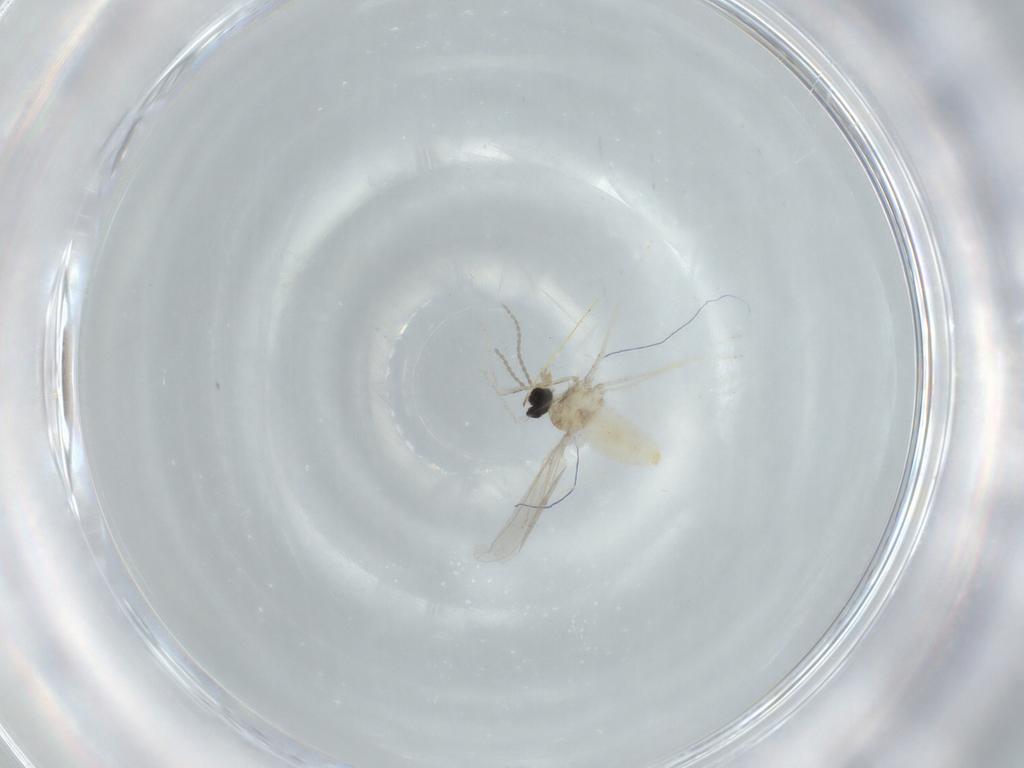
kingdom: Animalia
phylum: Arthropoda
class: Insecta
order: Diptera
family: Cecidomyiidae
